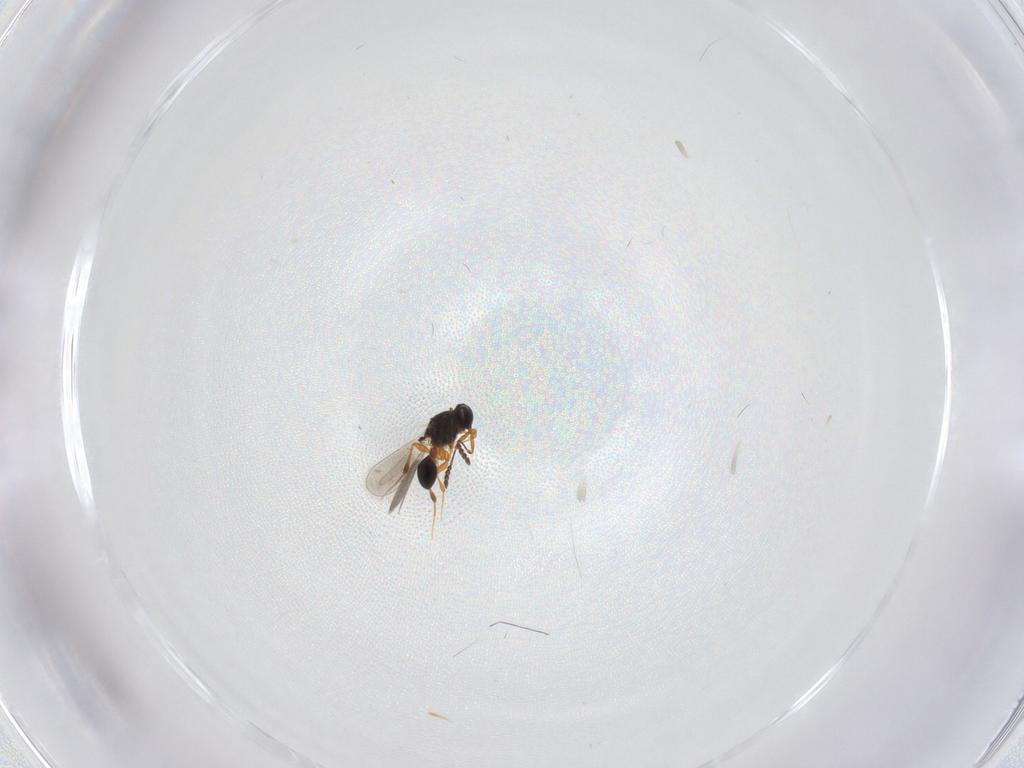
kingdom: Animalia
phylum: Arthropoda
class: Insecta
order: Hymenoptera
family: Platygastridae
